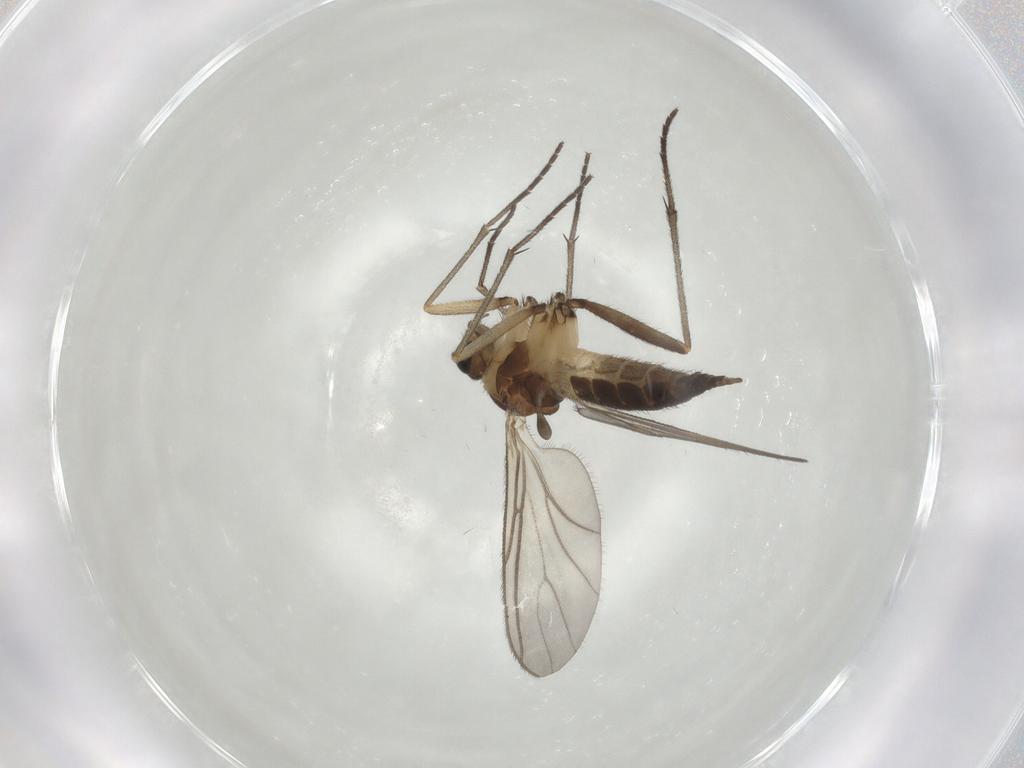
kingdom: Animalia
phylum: Arthropoda
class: Insecta
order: Diptera
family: Sciaridae
